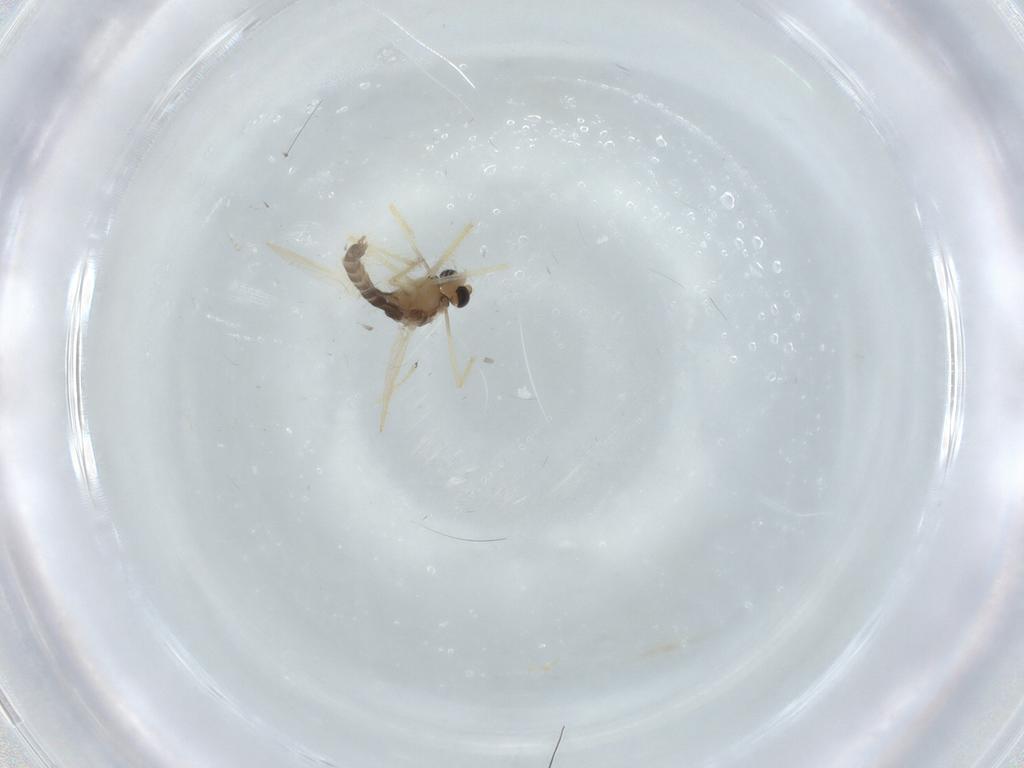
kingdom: Animalia
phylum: Arthropoda
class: Insecta
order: Diptera
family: Chironomidae
